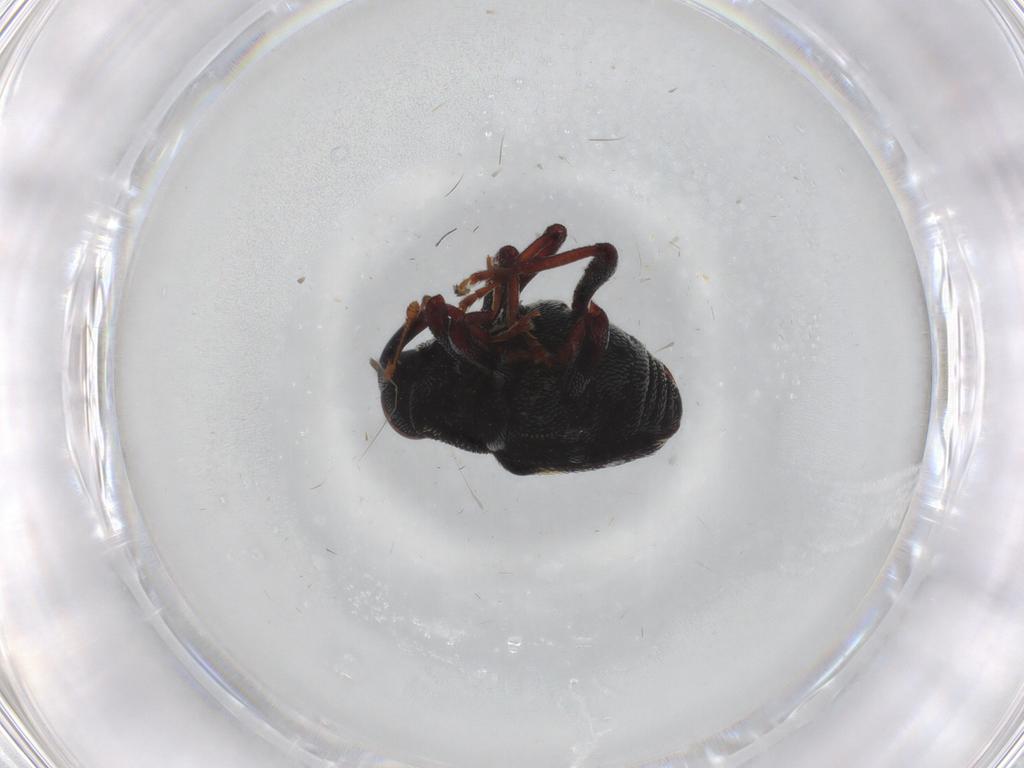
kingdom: Animalia
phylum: Arthropoda
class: Insecta
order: Coleoptera
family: Curculionidae
